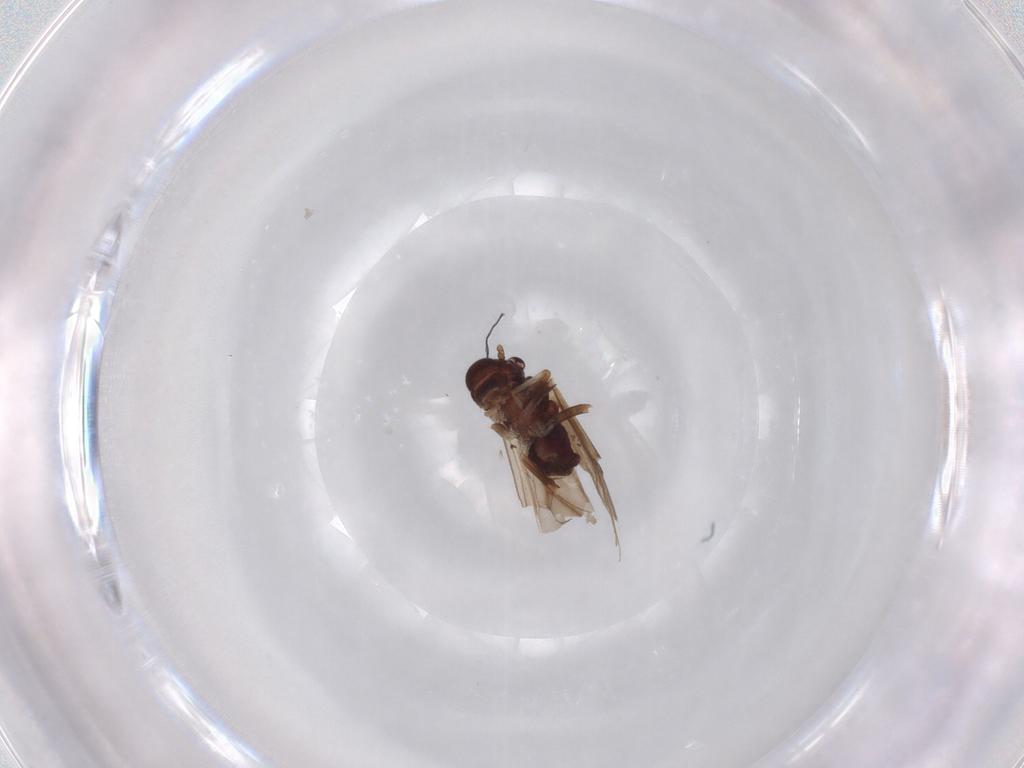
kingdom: Animalia
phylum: Arthropoda
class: Insecta
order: Psocodea
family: Caeciliusidae
